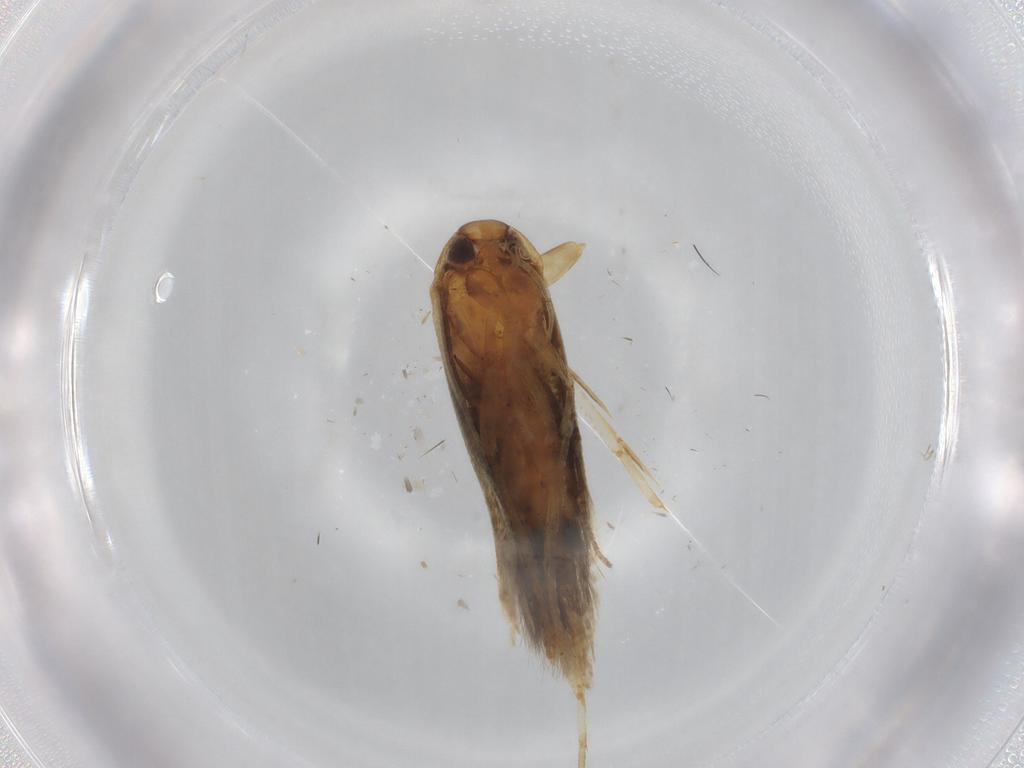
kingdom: Animalia
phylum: Arthropoda
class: Insecta
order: Lepidoptera
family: Cosmopterigidae
